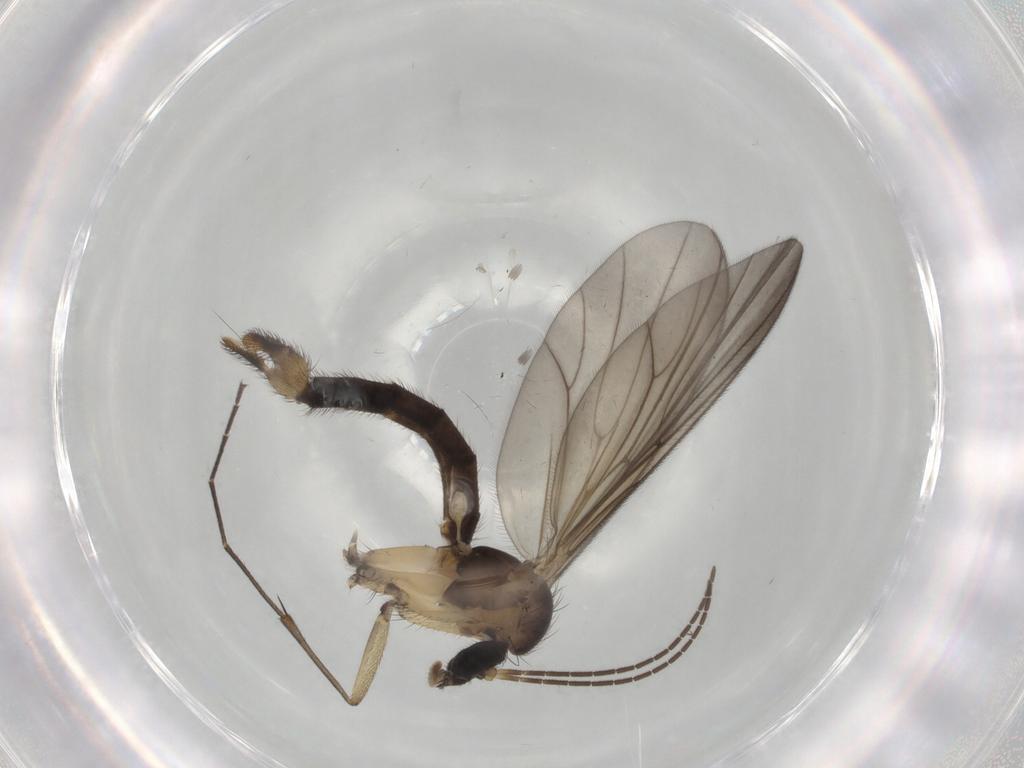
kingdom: Animalia
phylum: Arthropoda
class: Insecta
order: Diptera
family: Mycetophilidae
